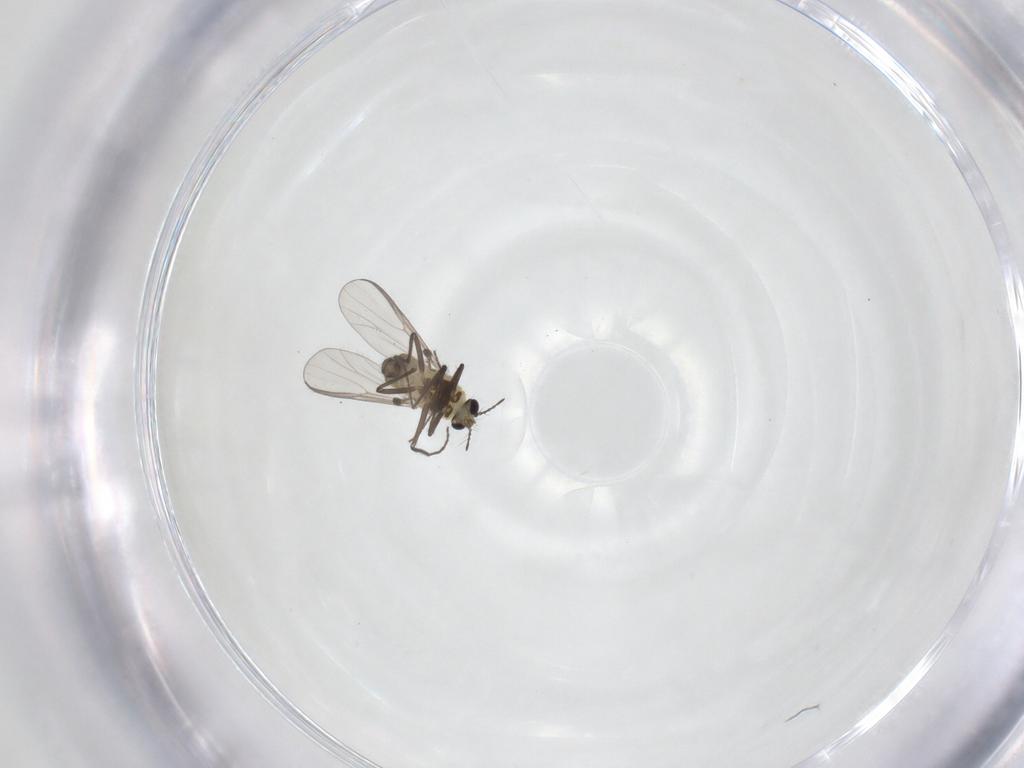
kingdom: Animalia
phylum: Arthropoda
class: Insecta
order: Diptera
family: Chironomidae
